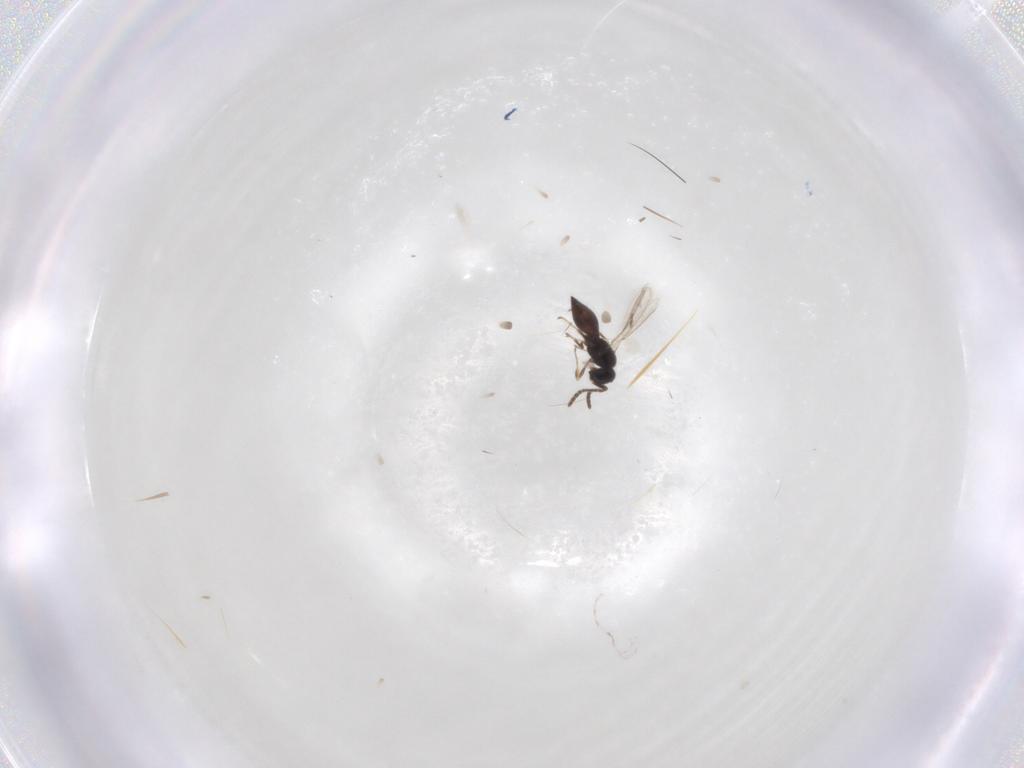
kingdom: Animalia
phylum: Arthropoda
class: Insecta
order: Hymenoptera
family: Scelionidae
